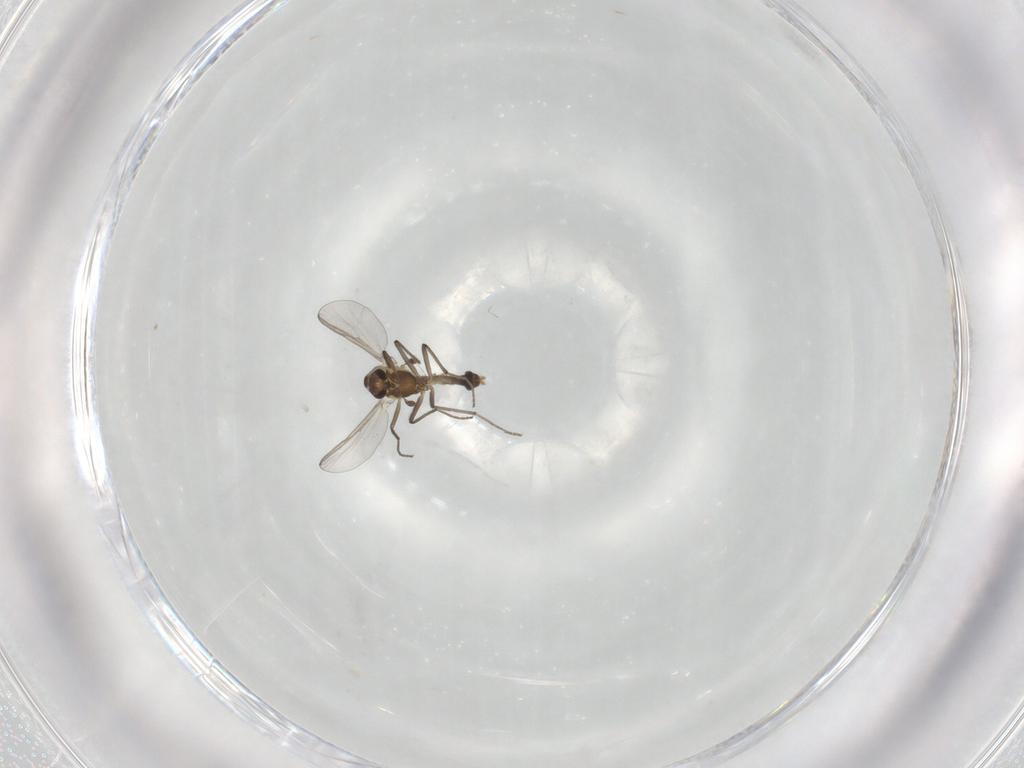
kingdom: Animalia
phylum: Arthropoda
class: Insecta
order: Diptera
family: Chironomidae
